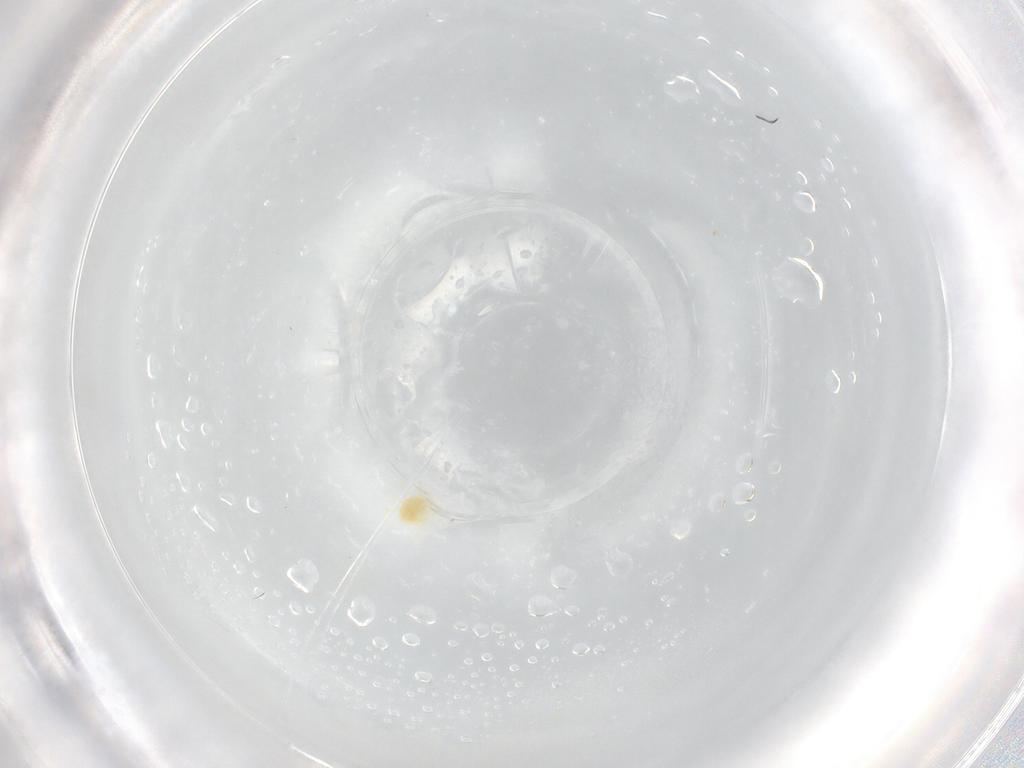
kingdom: Animalia
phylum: Arthropoda
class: Arachnida
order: Trombidiformes
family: Tetranychidae
